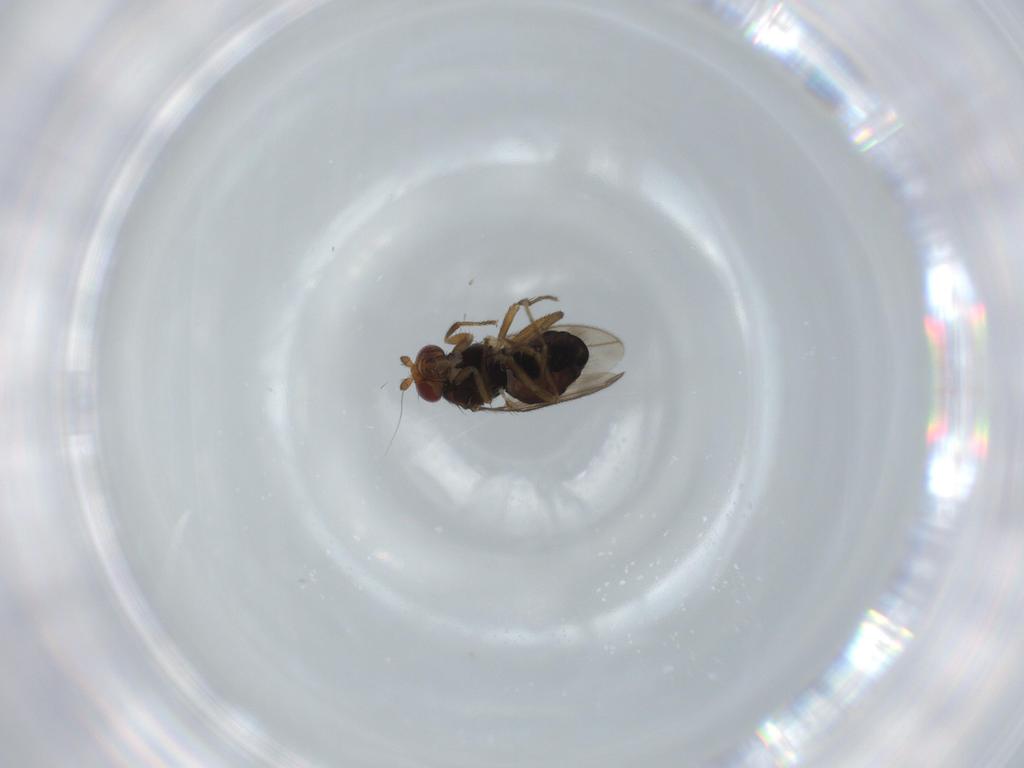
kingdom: Animalia
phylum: Arthropoda
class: Insecta
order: Diptera
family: Sphaeroceridae
